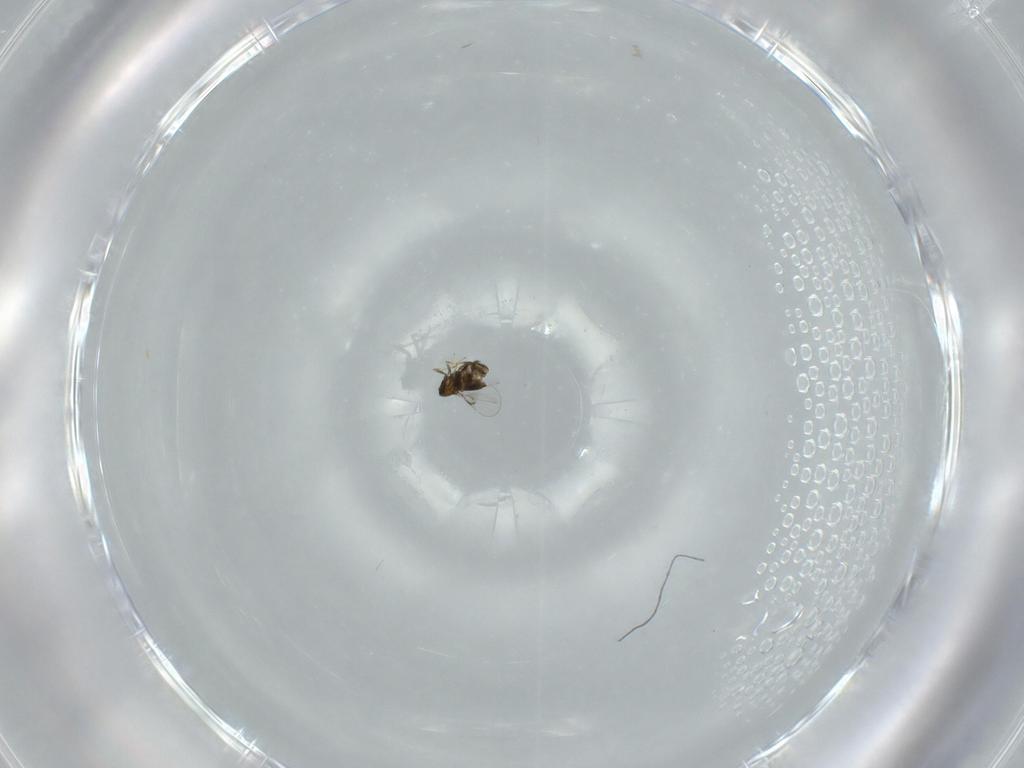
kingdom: Animalia
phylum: Arthropoda
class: Insecta
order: Hymenoptera
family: Trichogrammatidae
